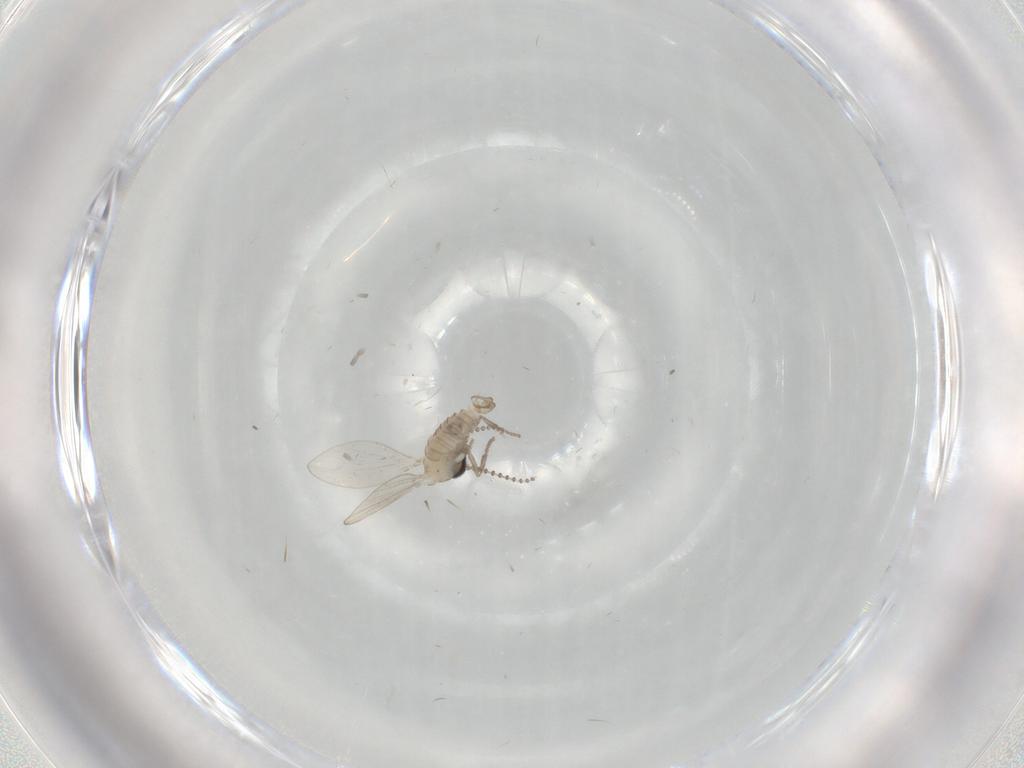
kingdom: Animalia
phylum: Arthropoda
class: Insecta
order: Diptera
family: Psychodidae
